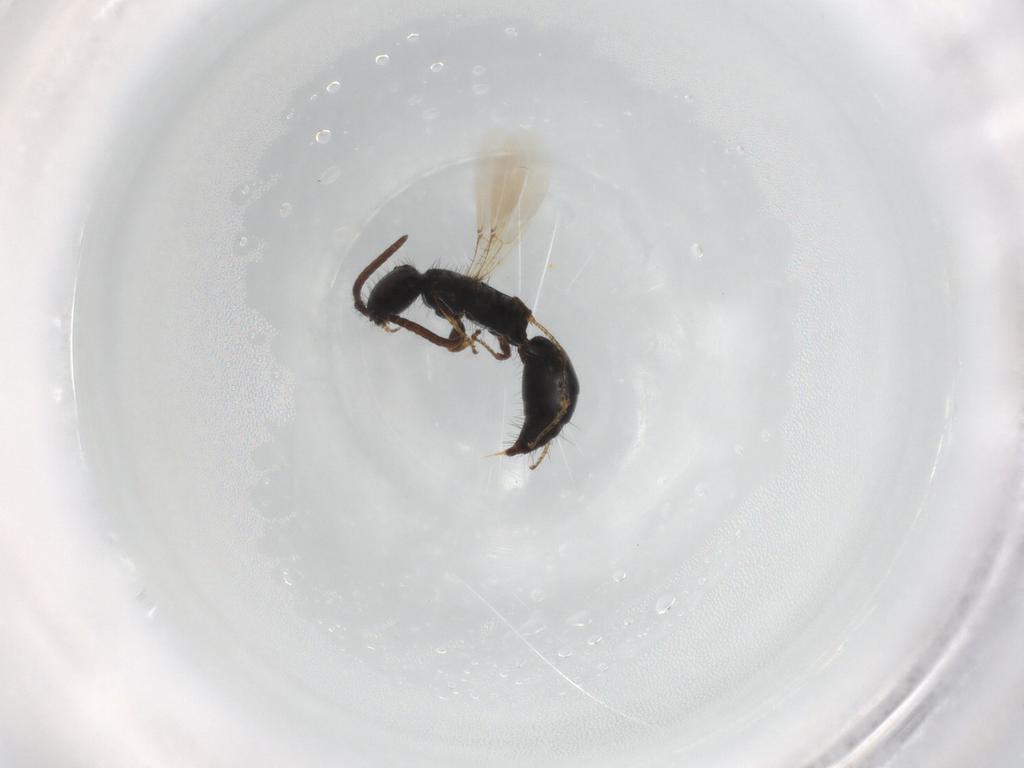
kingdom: Animalia
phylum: Arthropoda
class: Insecta
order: Hymenoptera
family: Bethylidae
